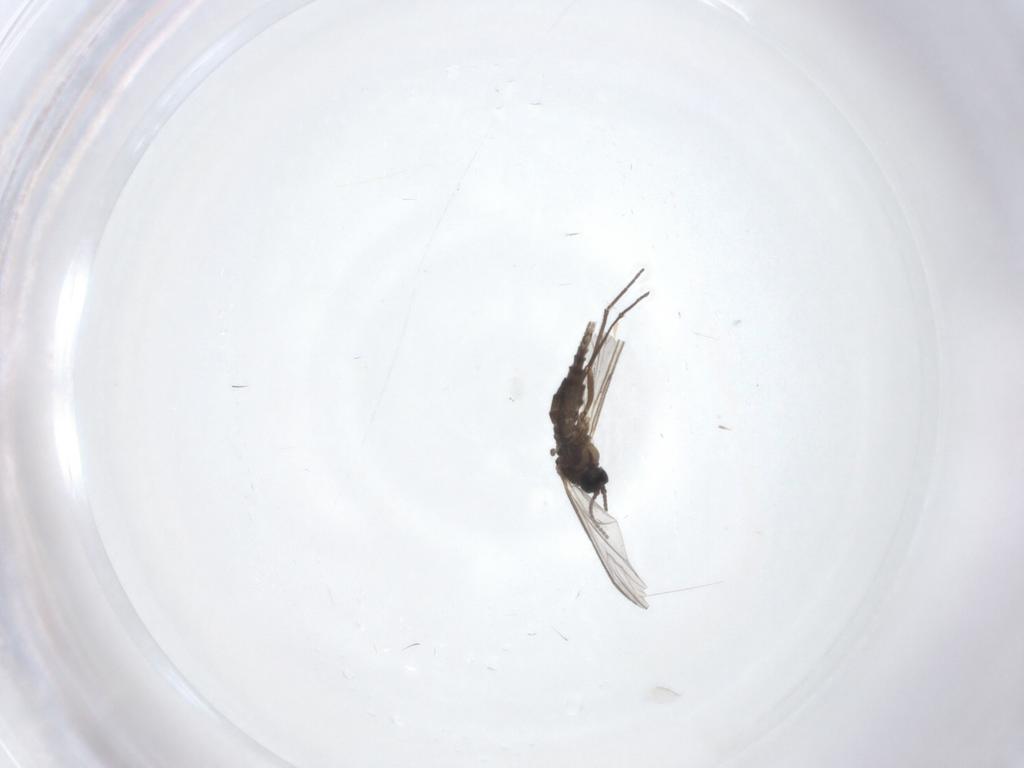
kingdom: Animalia
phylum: Arthropoda
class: Insecta
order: Diptera
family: Sciaridae
